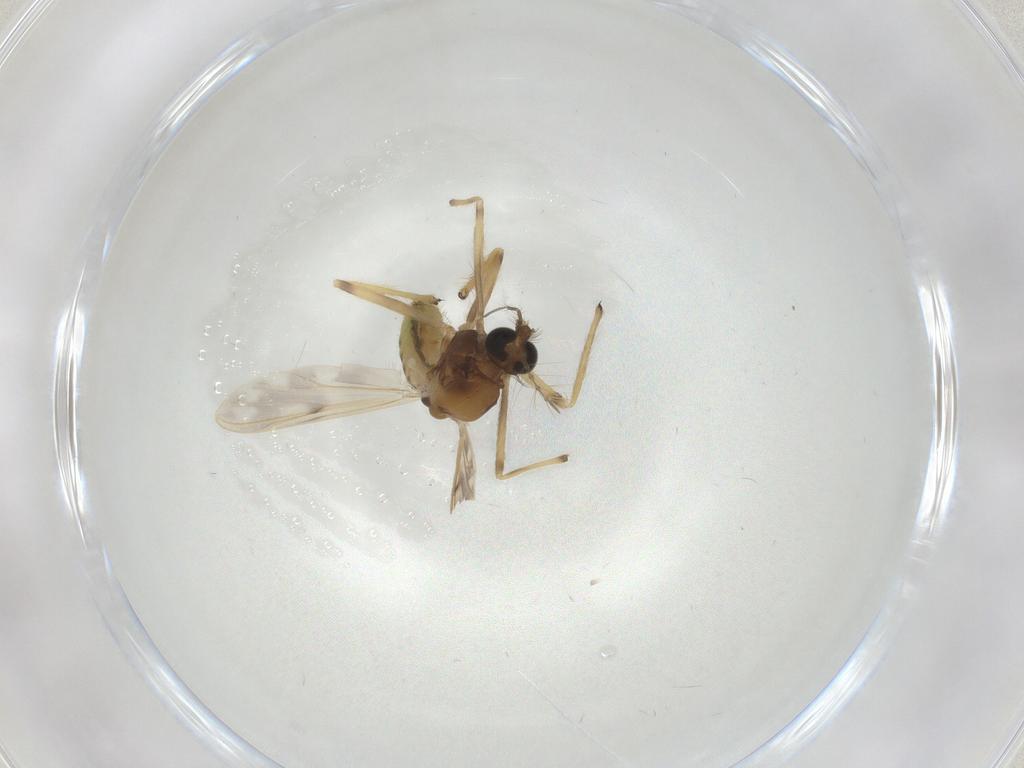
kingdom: Animalia
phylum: Arthropoda
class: Insecta
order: Diptera
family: Chironomidae
